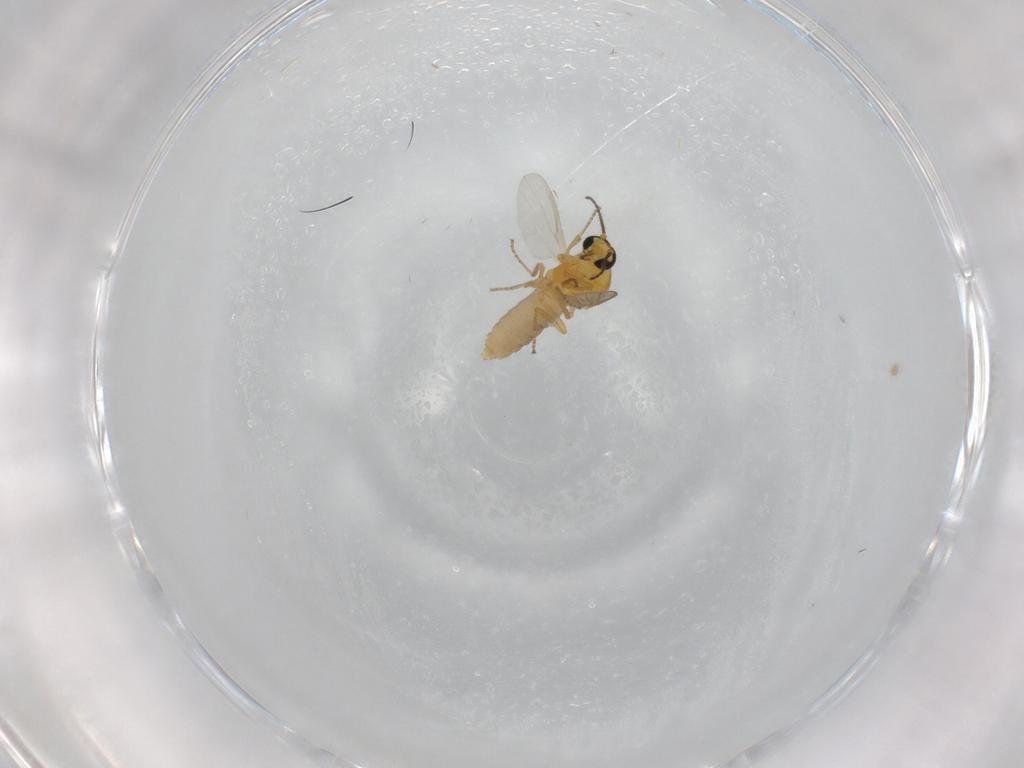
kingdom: Animalia
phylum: Arthropoda
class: Insecta
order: Diptera
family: Ceratopogonidae
